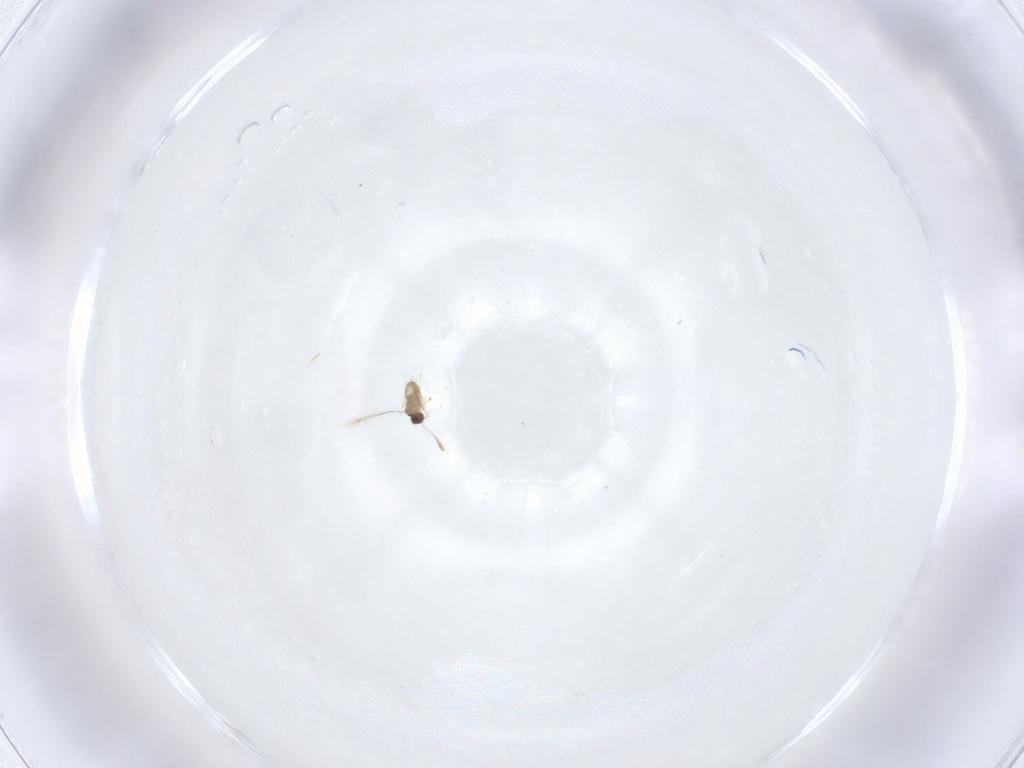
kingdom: Animalia
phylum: Arthropoda
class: Insecta
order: Hymenoptera
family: Mymaridae
